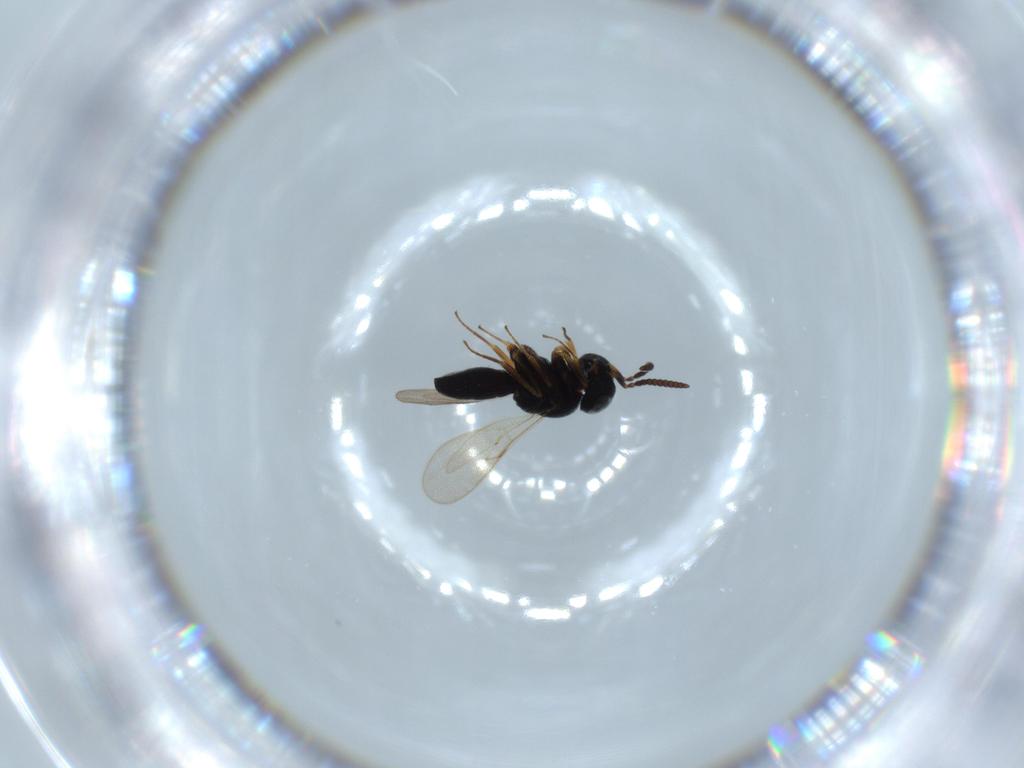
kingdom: Animalia
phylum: Arthropoda
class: Insecta
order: Hymenoptera
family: Scelionidae
